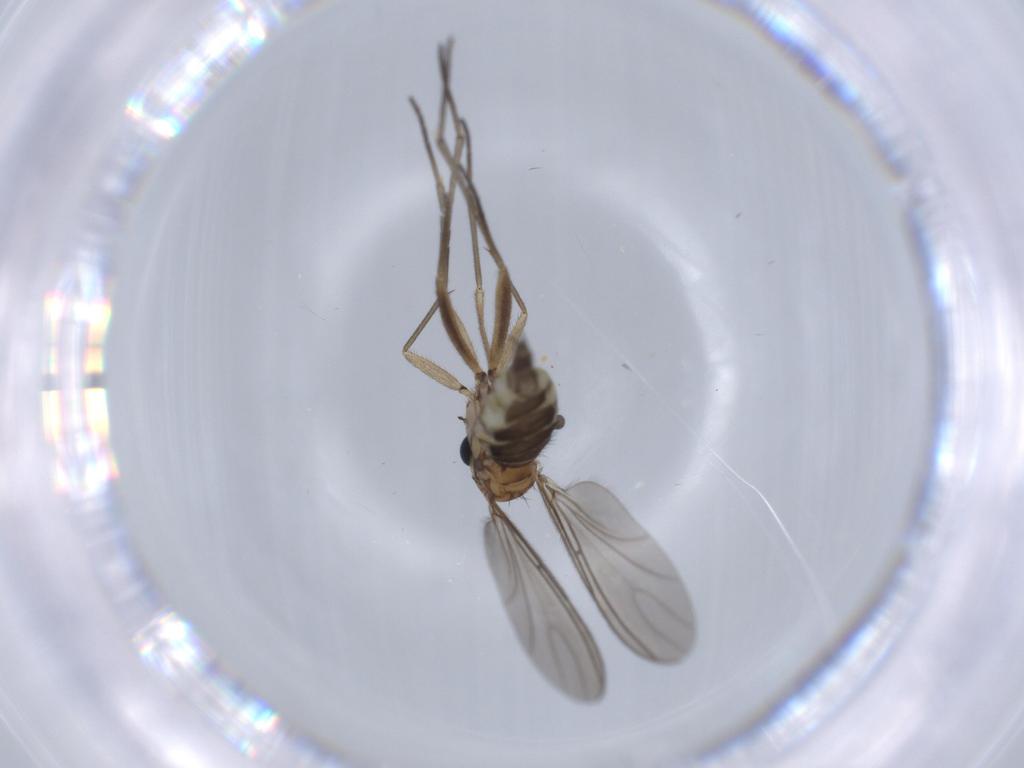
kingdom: Animalia
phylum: Arthropoda
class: Insecta
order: Diptera
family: Sciaridae
